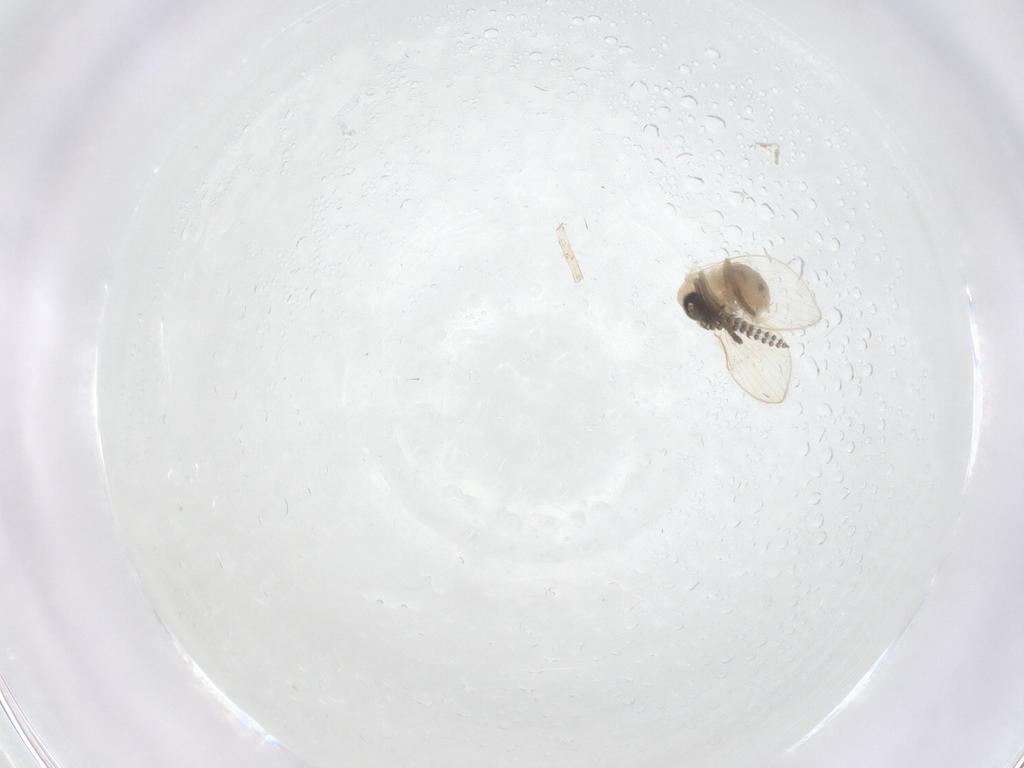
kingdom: Animalia
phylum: Arthropoda
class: Insecta
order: Diptera
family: Psychodidae
